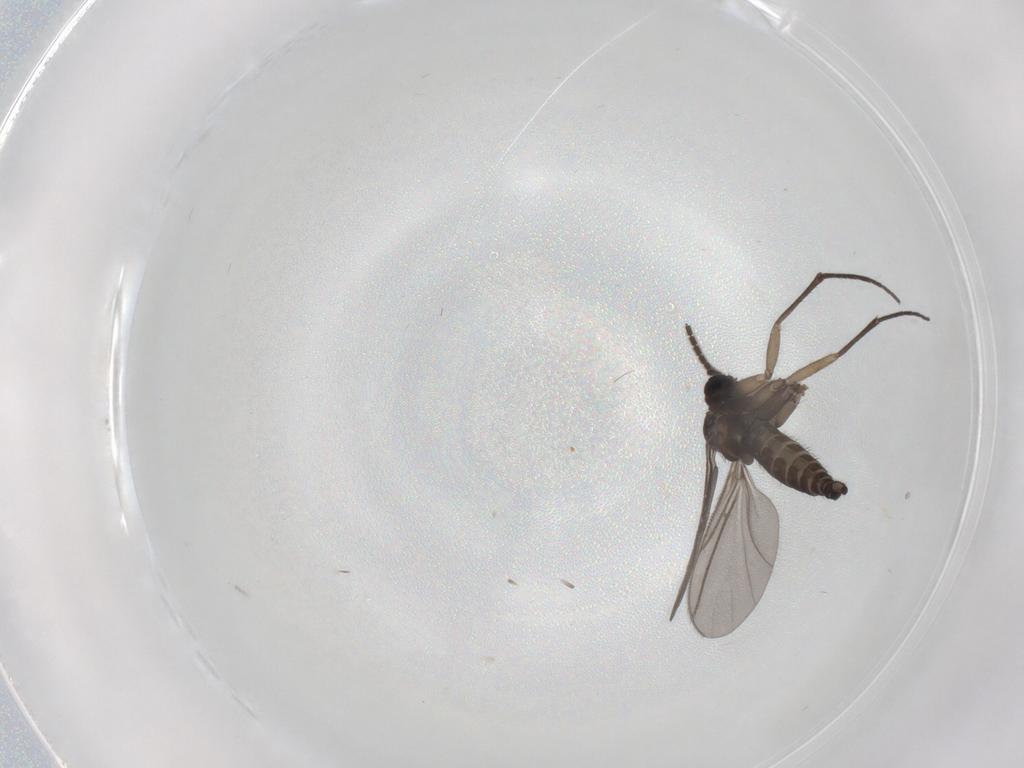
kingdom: Animalia
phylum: Arthropoda
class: Insecta
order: Diptera
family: Sciaridae
